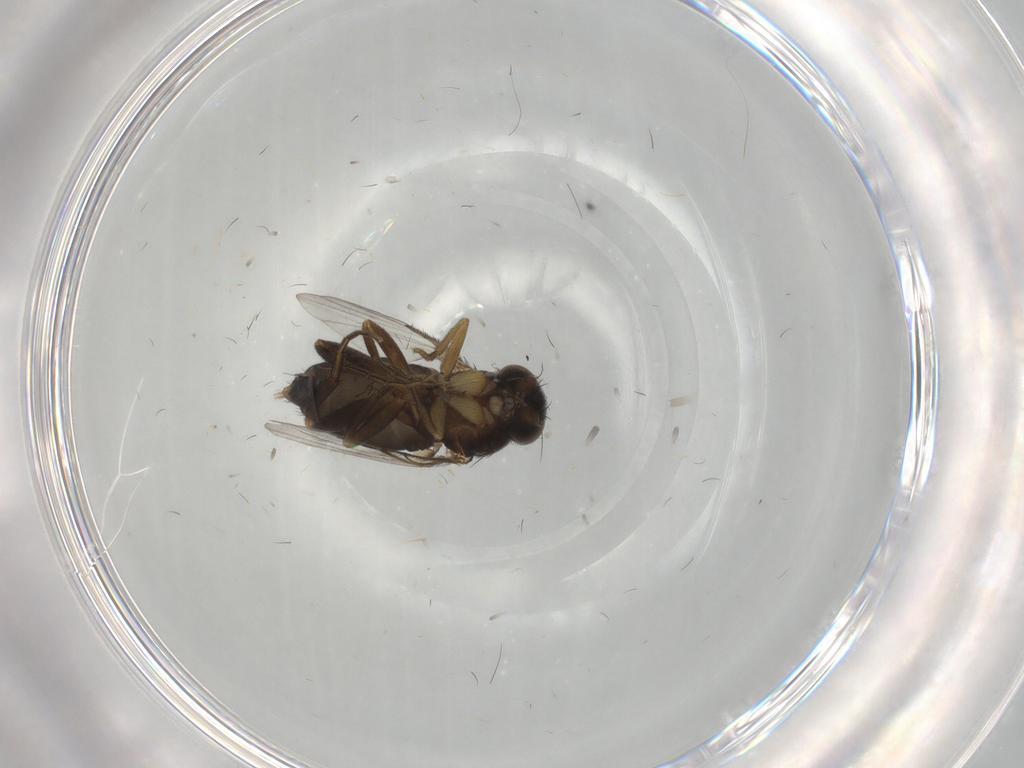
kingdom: Animalia
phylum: Arthropoda
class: Insecta
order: Diptera
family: Phoridae
